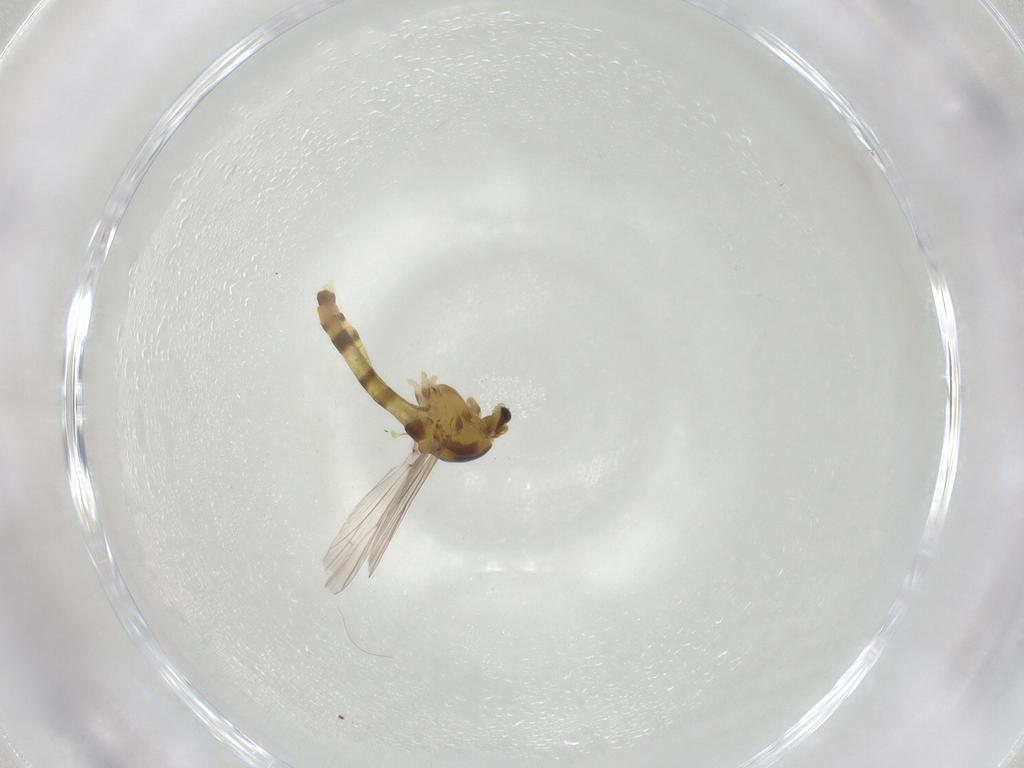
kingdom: Animalia
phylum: Arthropoda
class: Insecta
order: Diptera
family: Chironomidae
